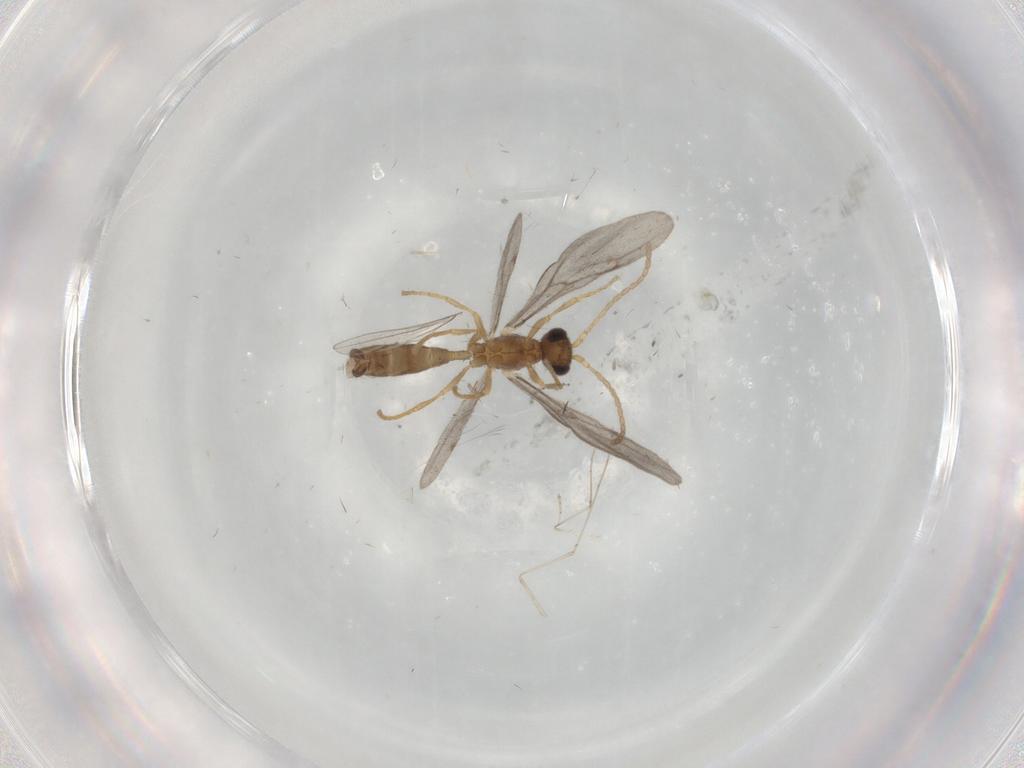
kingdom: Animalia
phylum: Arthropoda
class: Insecta
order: Hymenoptera
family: Formicidae
